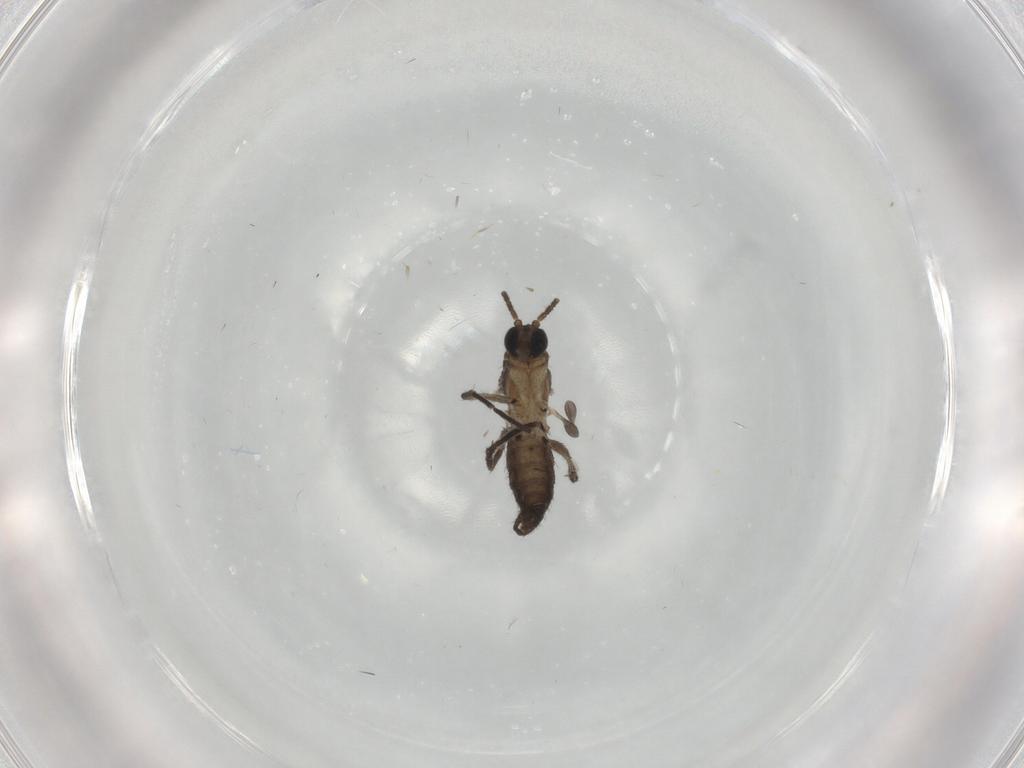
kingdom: Animalia
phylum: Arthropoda
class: Insecta
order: Diptera
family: Sciaridae
